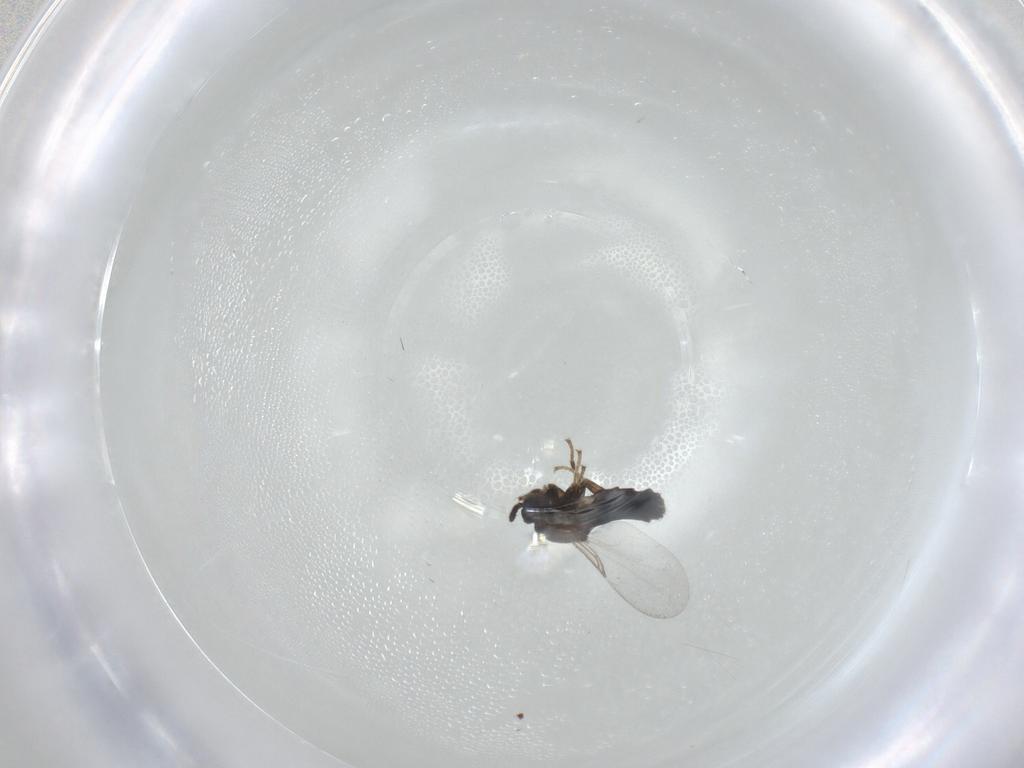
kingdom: Animalia
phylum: Arthropoda
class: Insecta
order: Diptera
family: Scatopsidae
